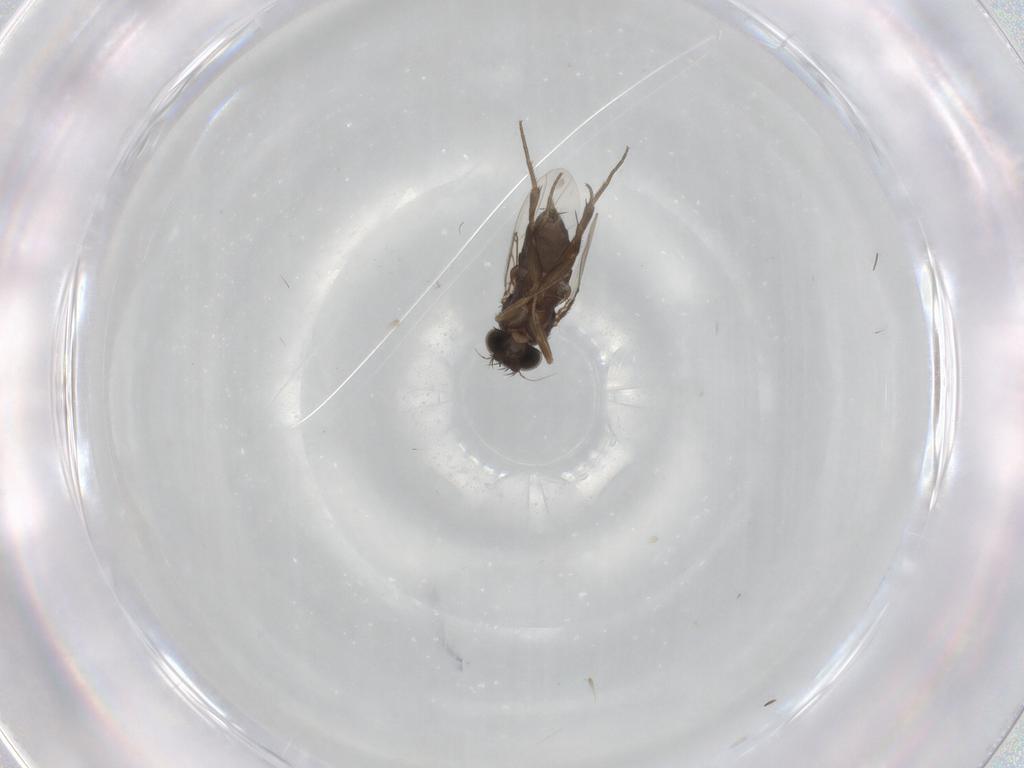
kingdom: Animalia
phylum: Arthropoda
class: Insecta
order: Diptera
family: Phoridae
